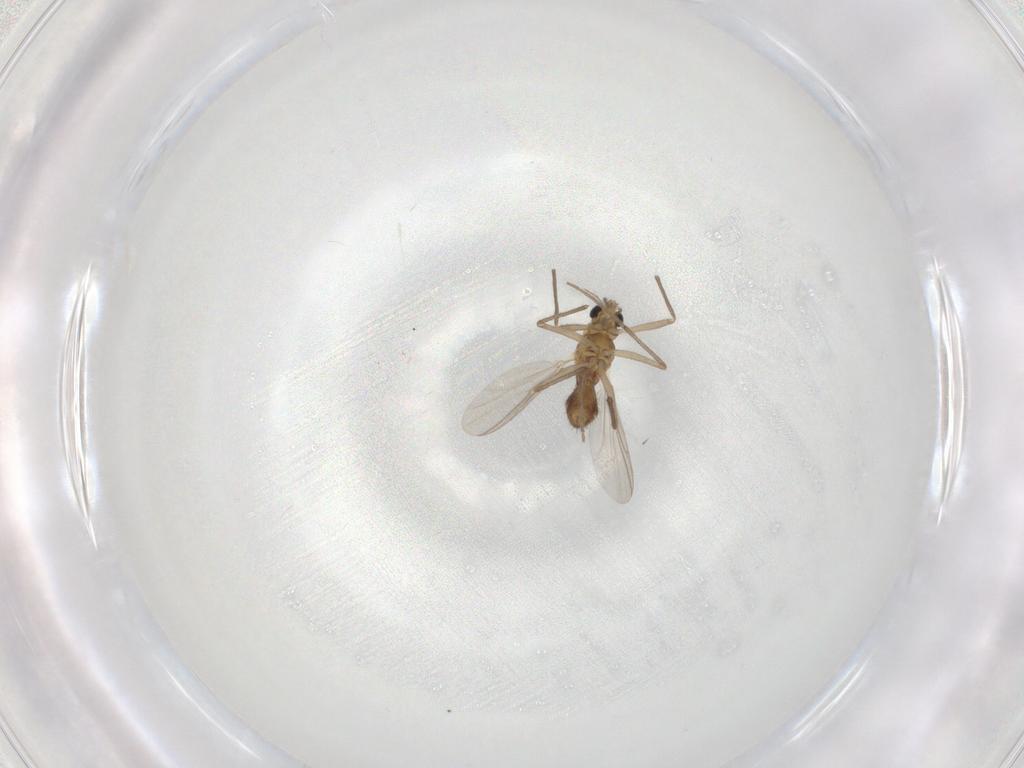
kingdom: Animalia
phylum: Arthropoda
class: Insecta
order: Diptera
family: Chironomidae
